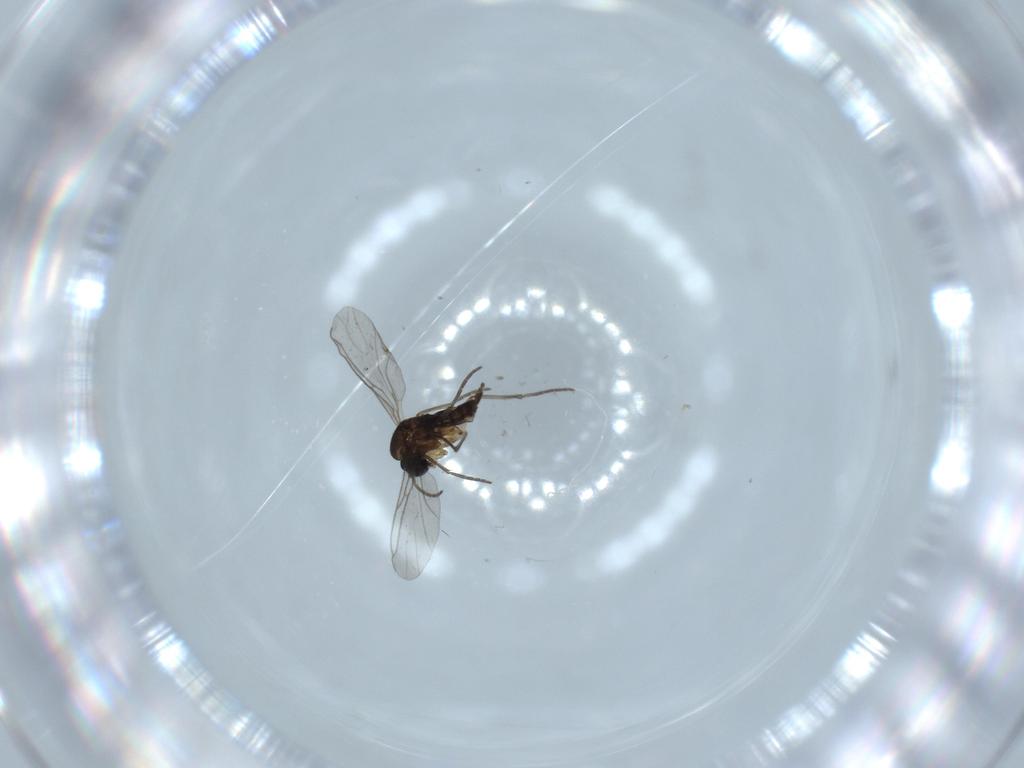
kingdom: Animalia
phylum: Arthropoda
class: Insecta
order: Diptera
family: Sciaridae
